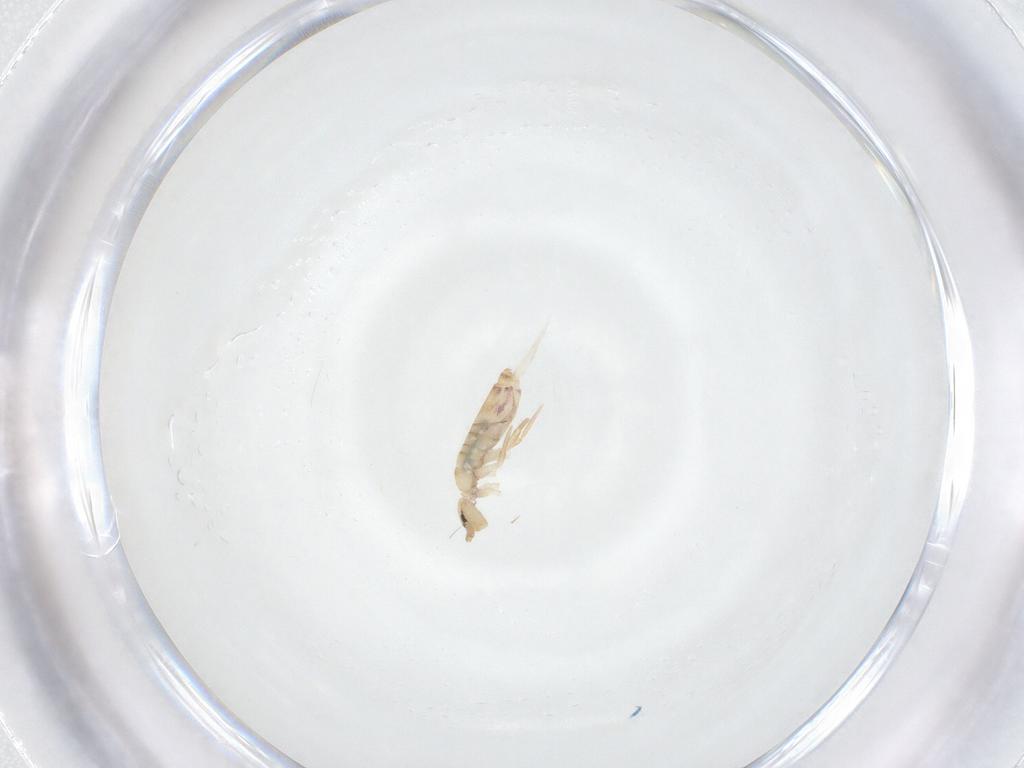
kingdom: Animalia
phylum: Arthropoda
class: Collembola
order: Entomobryomorpha
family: Entomobryidae
